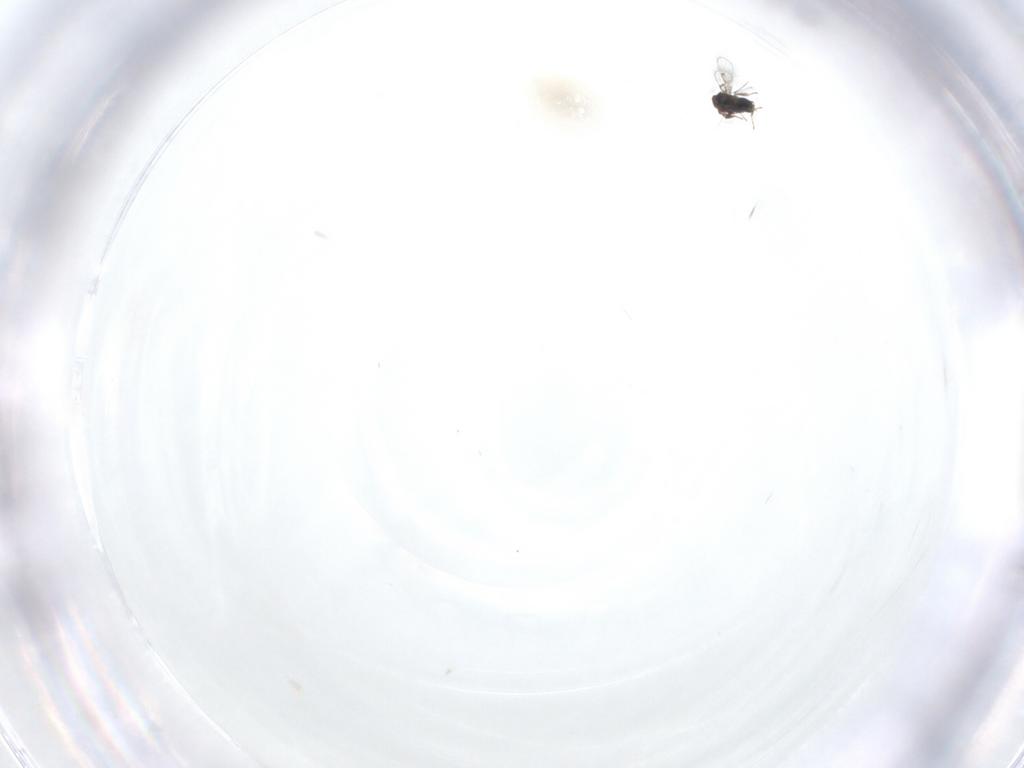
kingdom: Animalia
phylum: Arthropoda
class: Insecta
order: Hymenoptera
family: Trichogrammatidae
